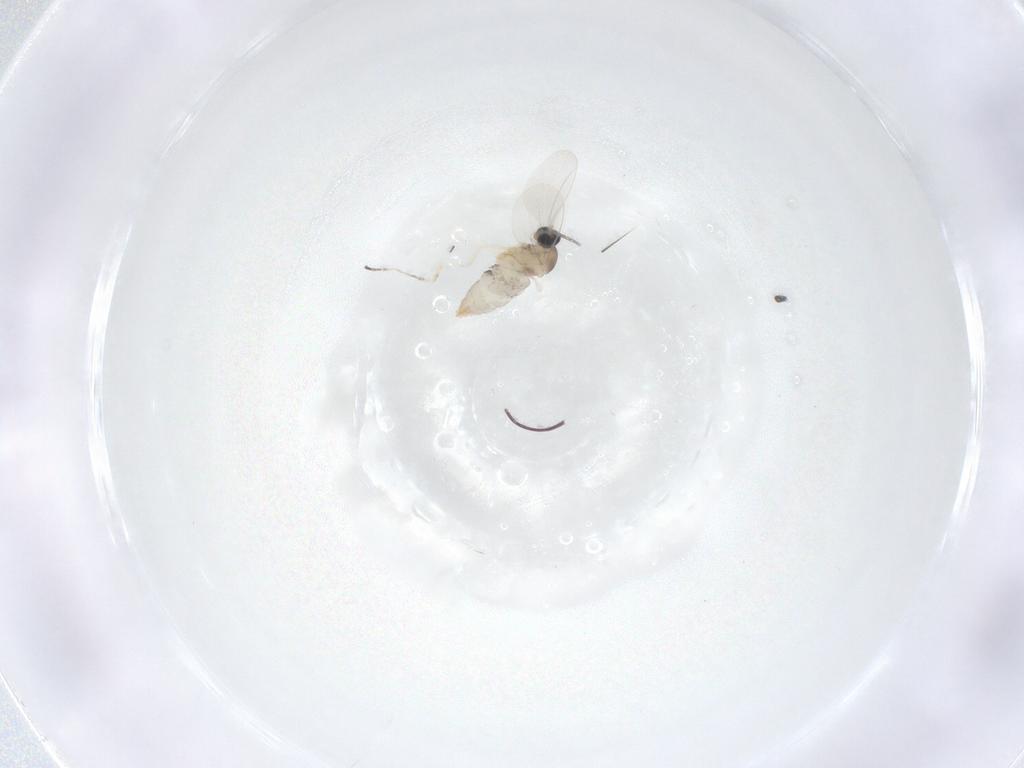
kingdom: Animalia
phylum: Arthropoda
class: Insecta
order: Diptera
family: Cecidomyiidae
